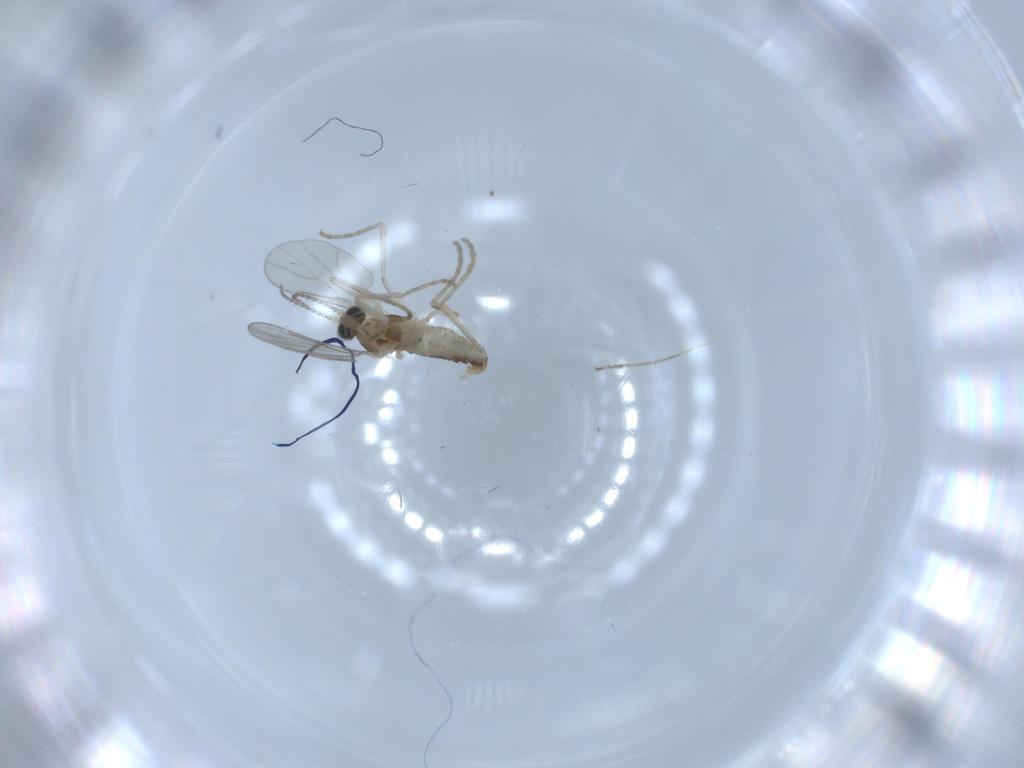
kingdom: Animalia
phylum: Arthropoda
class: Insecta
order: Diptera
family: Cecidomyiidae
